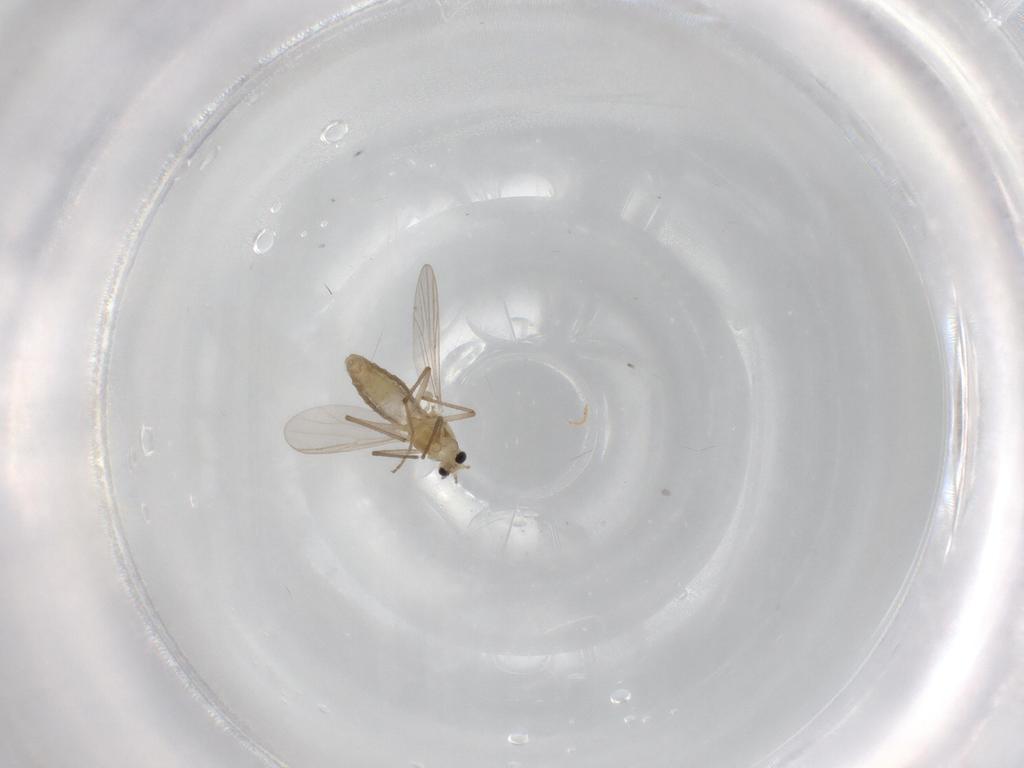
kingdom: Animalia
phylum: Arthropoda
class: Insecta
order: Diptera
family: Chironomidae
